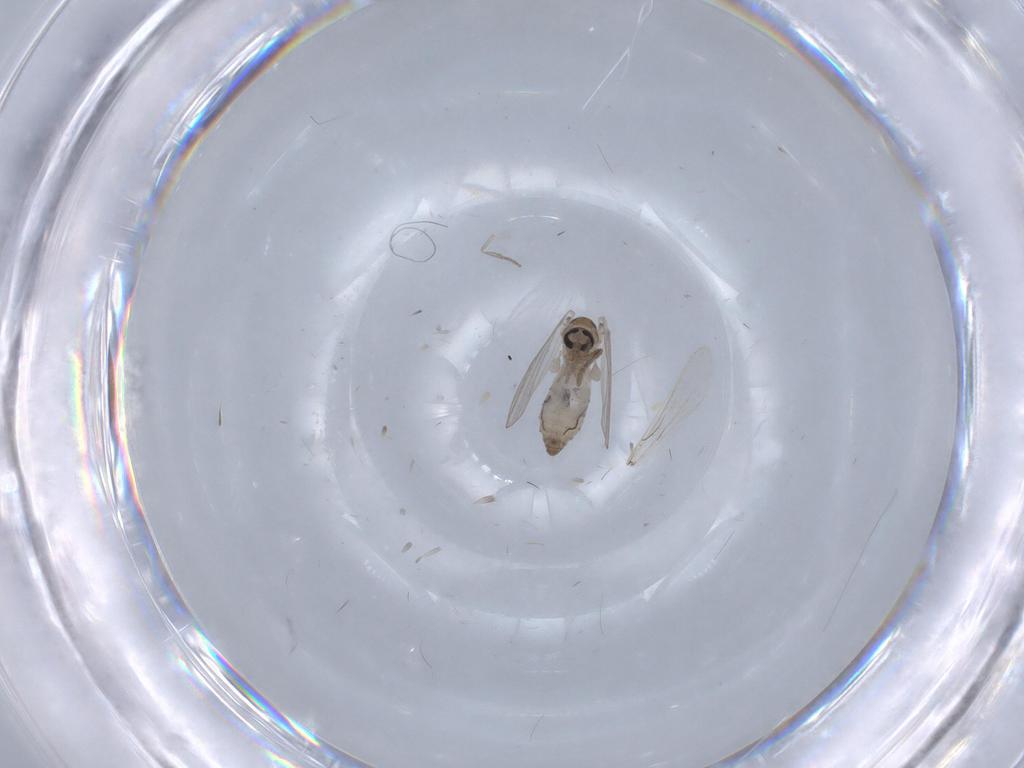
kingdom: Animalia
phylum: Arthropoda
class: Insecta
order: Diptera
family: Psychodidae
